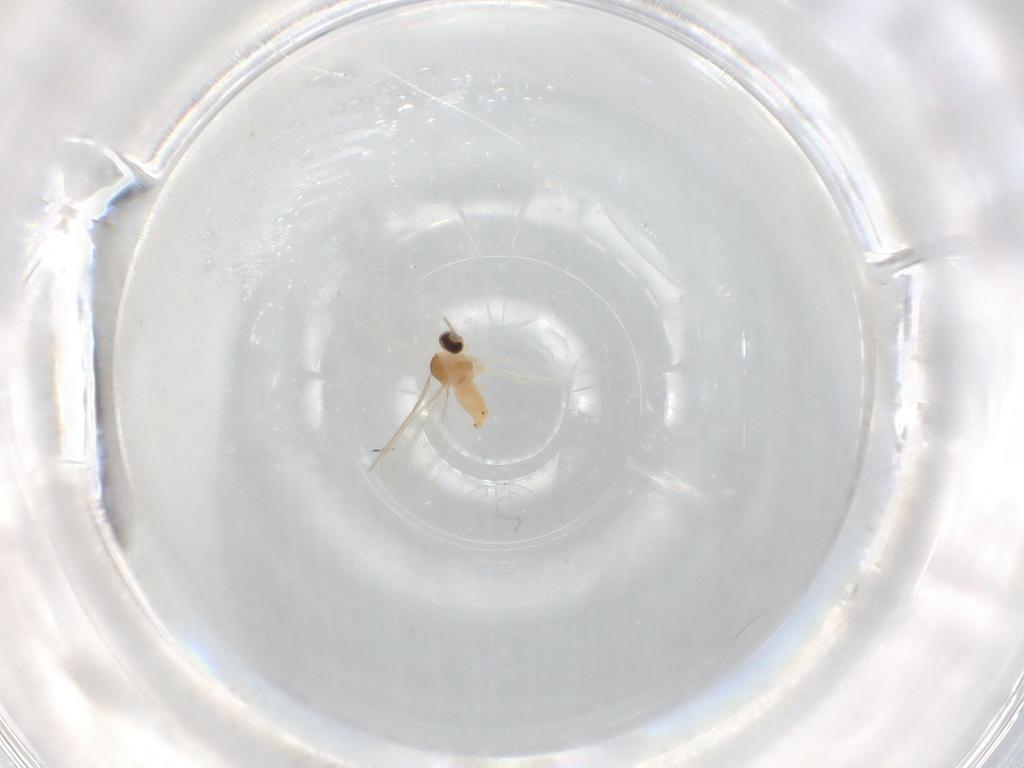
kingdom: Animalia
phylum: Arthropoda
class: Insecta
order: Diptera
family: Cecidomyiidae
